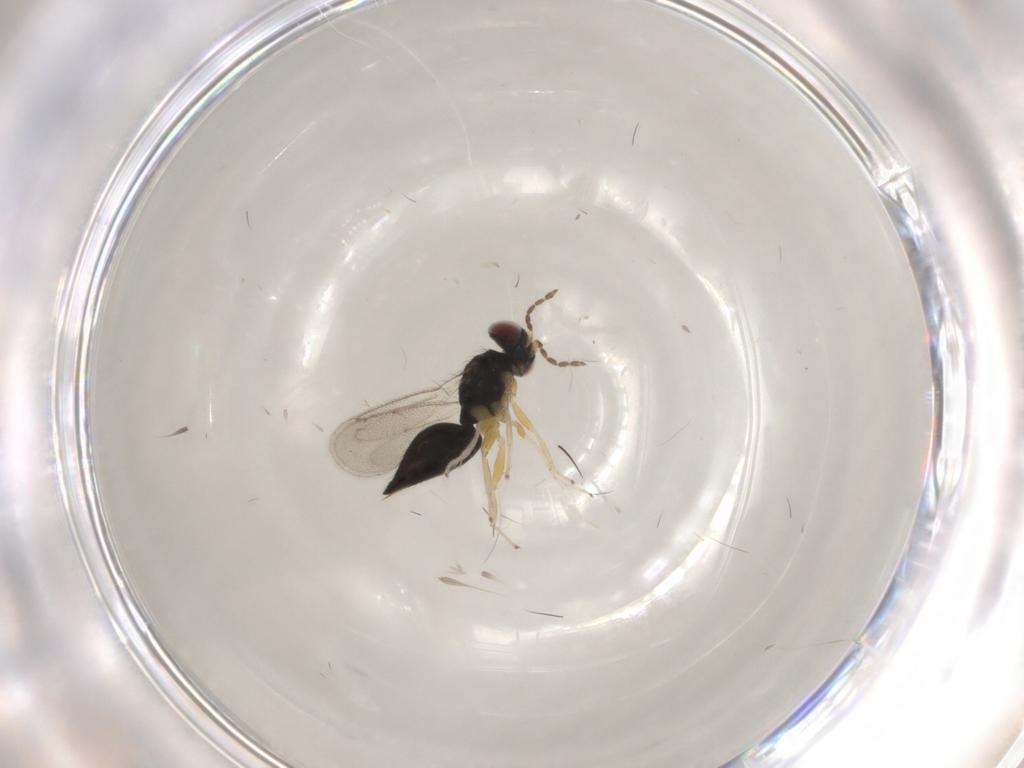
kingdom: Animalia
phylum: Arthropoda
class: Insecta
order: Hymenoptera
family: Eulophidae
